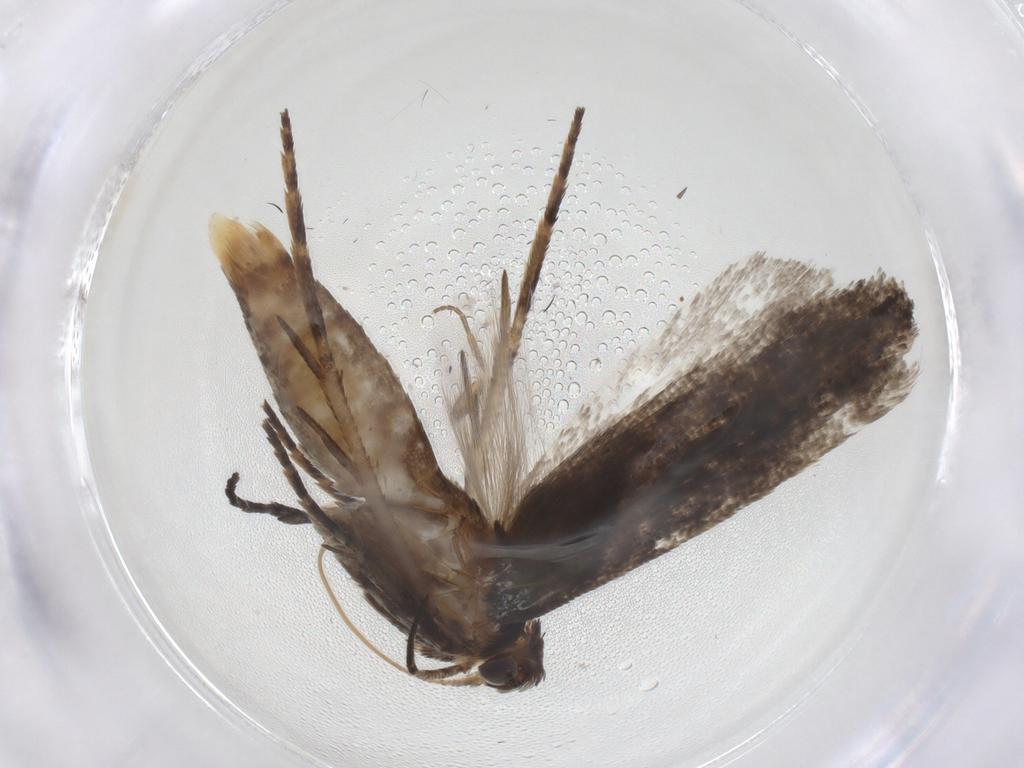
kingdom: Animalia
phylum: Arthropoda
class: Insecta
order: Lepidoptera
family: Gelechiidae
